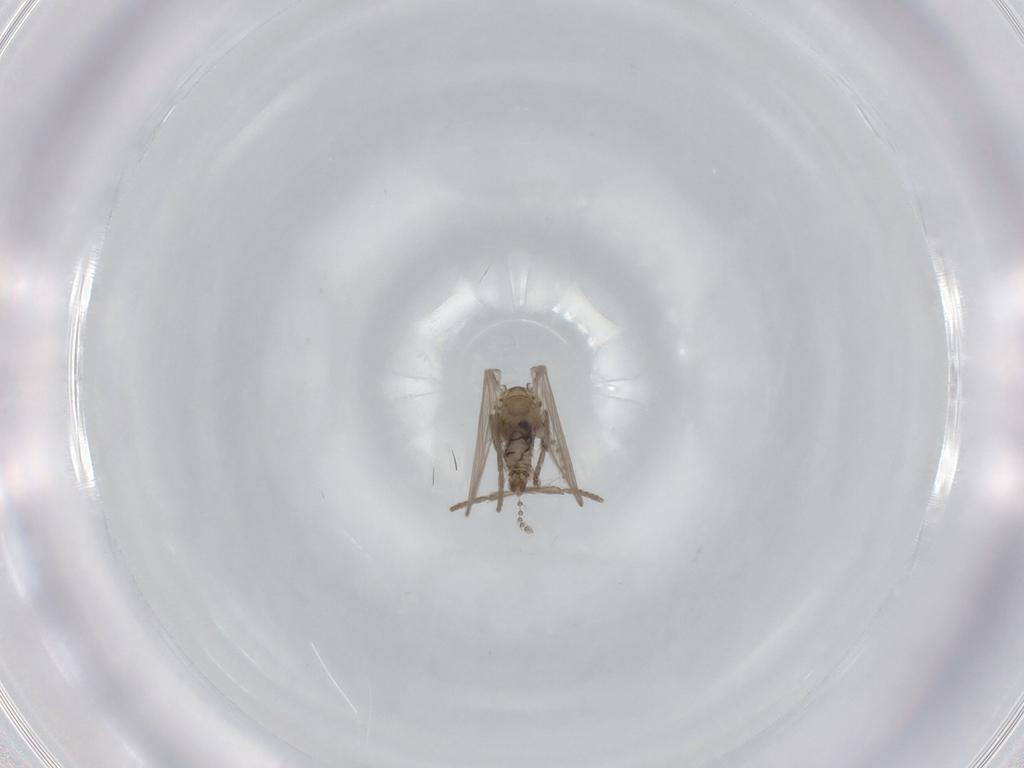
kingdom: Animalia
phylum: Arthropoda
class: Insecta
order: Diptera
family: Psychodidae
